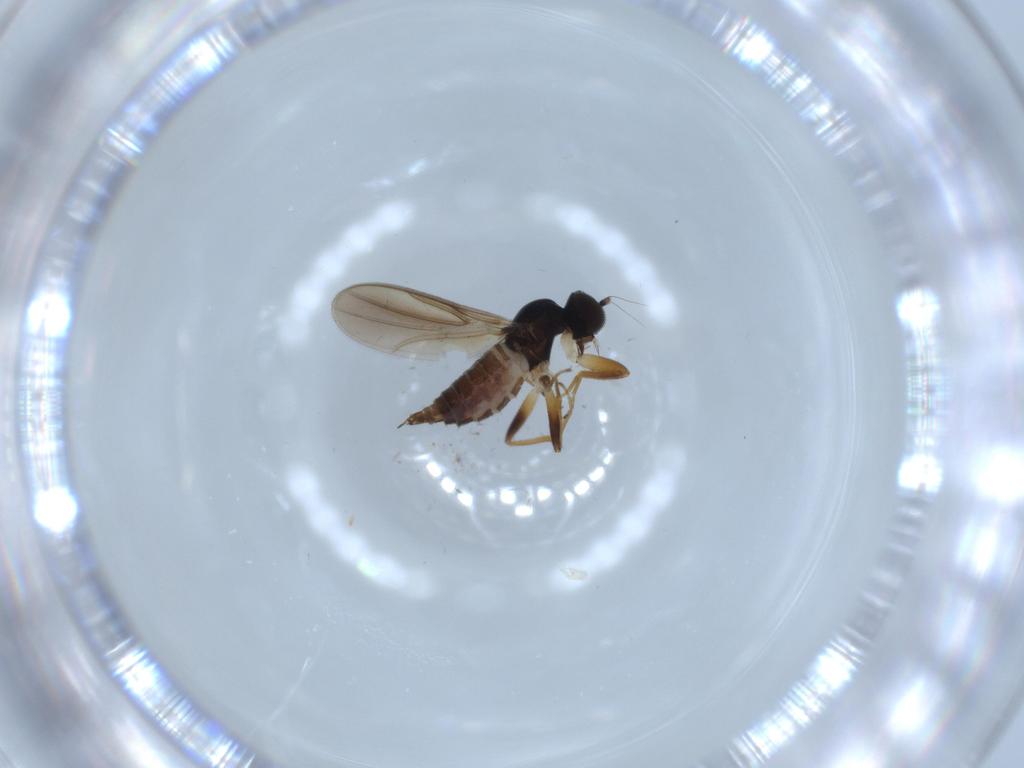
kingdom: Animalia
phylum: Arthropoda
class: Insecta
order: Diptera
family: Hybotidae
